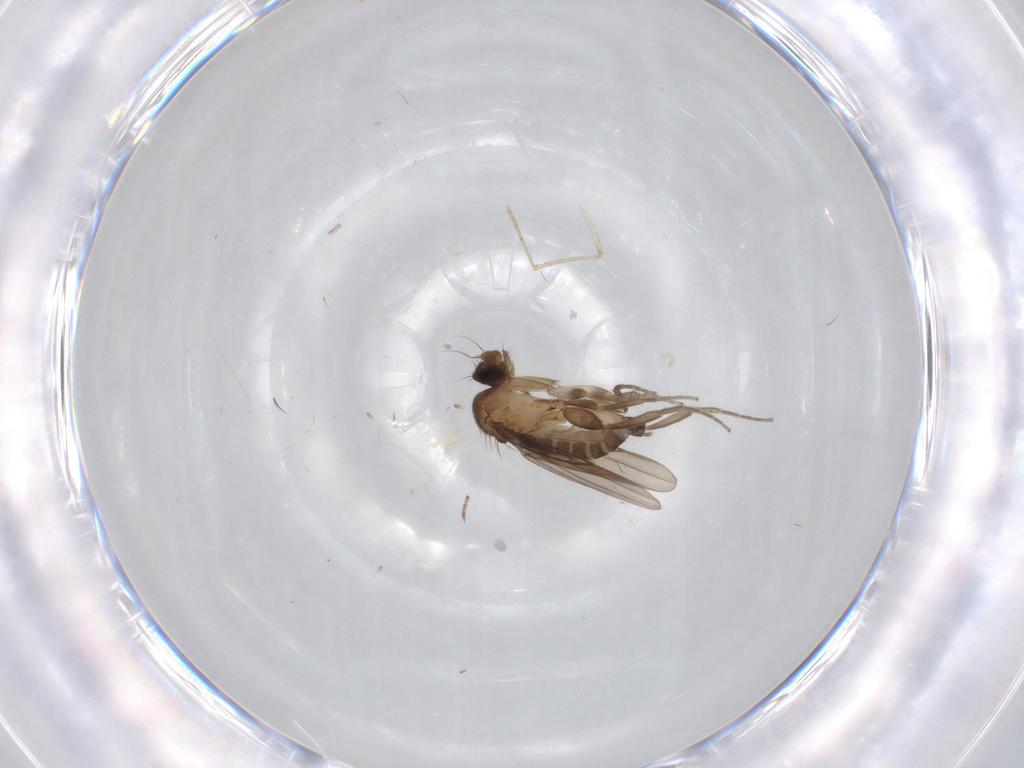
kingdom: Animalia
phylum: Arthropoda
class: Insecta
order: Diptera
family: Psychodidae
